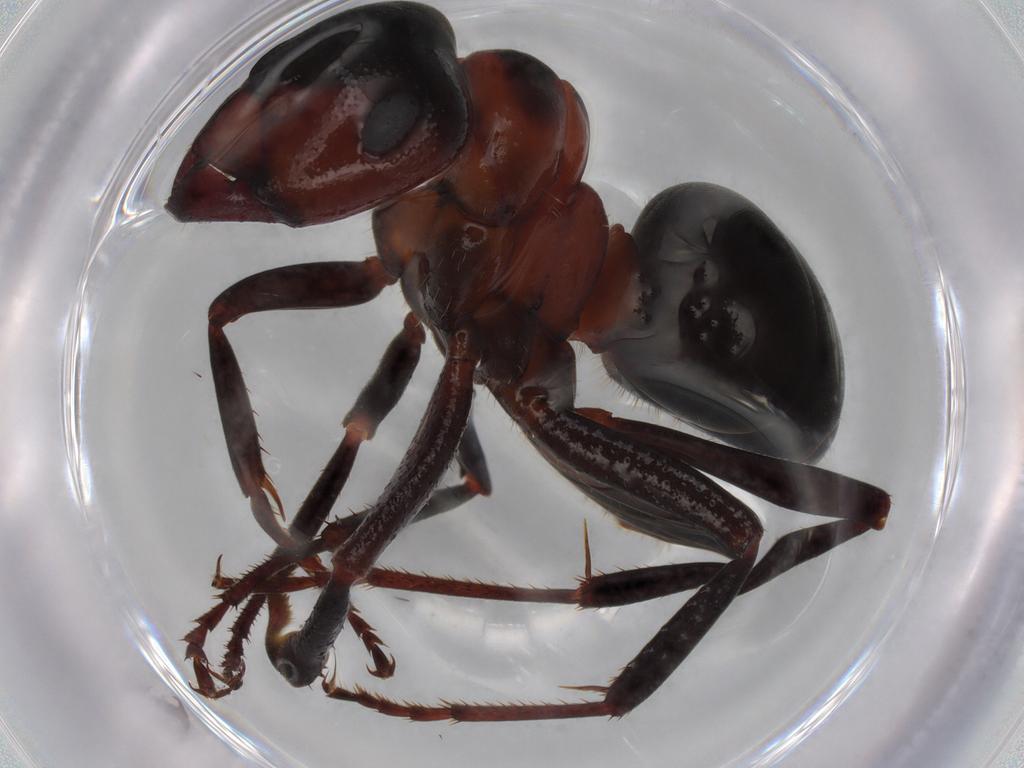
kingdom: Animalia
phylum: Arthropoda
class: Insecta
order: Hymenoptera
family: Formicidae
